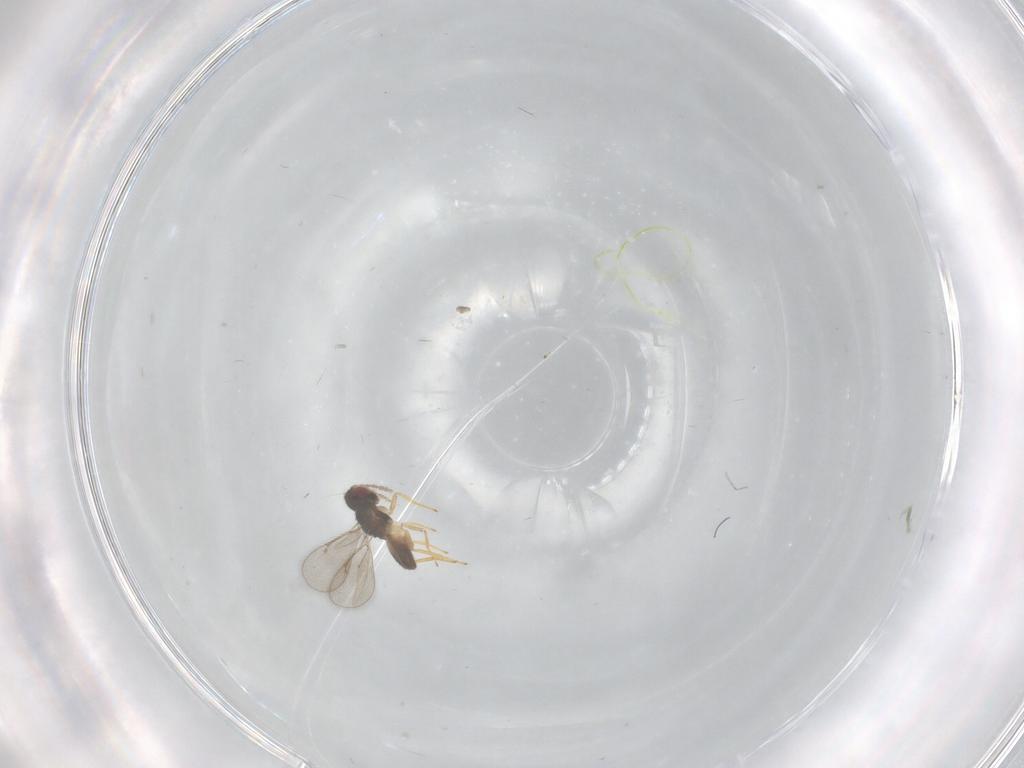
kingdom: Animalia
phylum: Arthropoda
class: Insecta
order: Hymenoptera
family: Eulophidae
